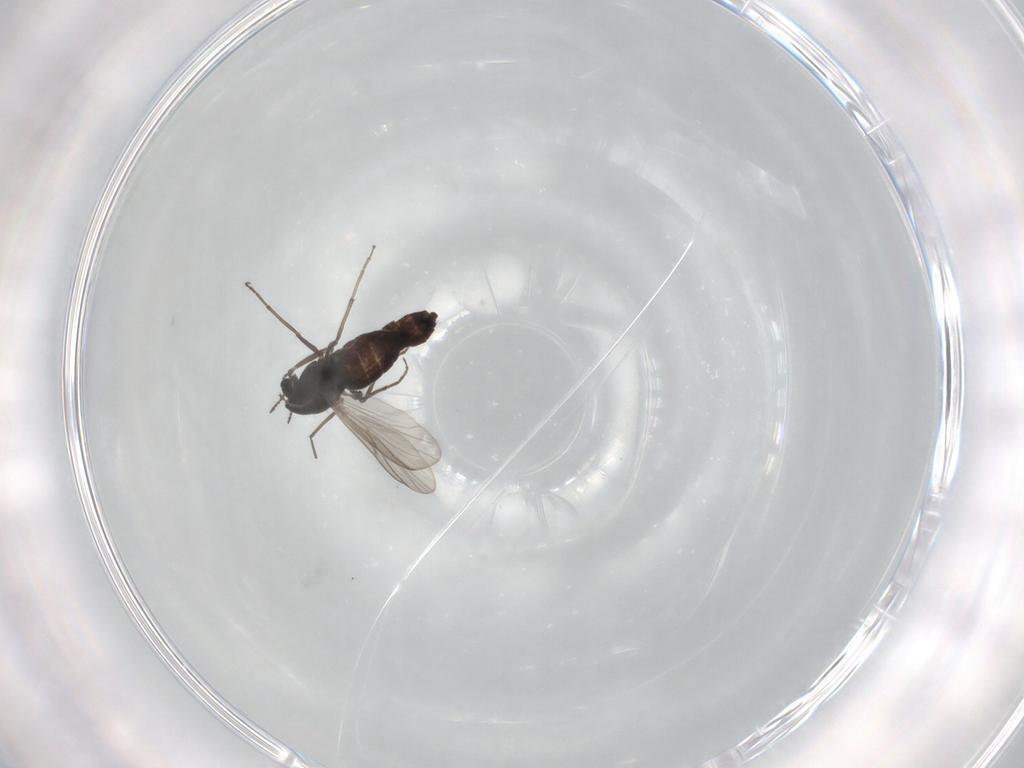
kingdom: Animalia
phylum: Arthropoda
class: Insecta
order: Diptera
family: Chironomidae
